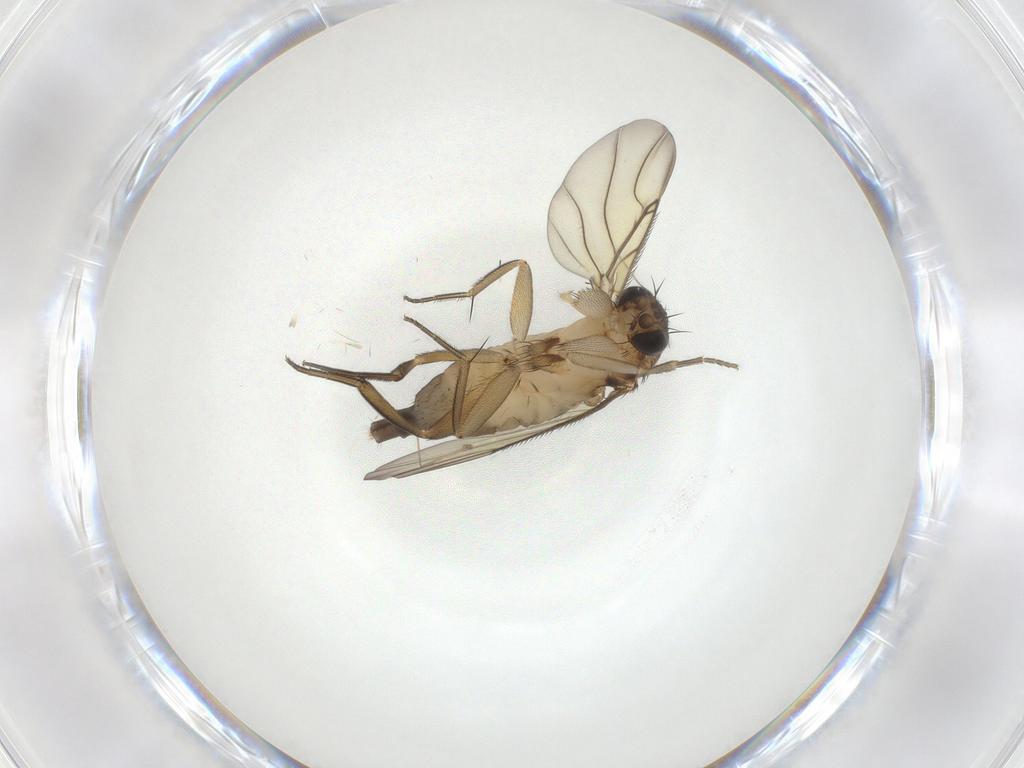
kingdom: Animalia
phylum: Arthropoda
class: Insecta
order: Diptera
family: Phoridae
